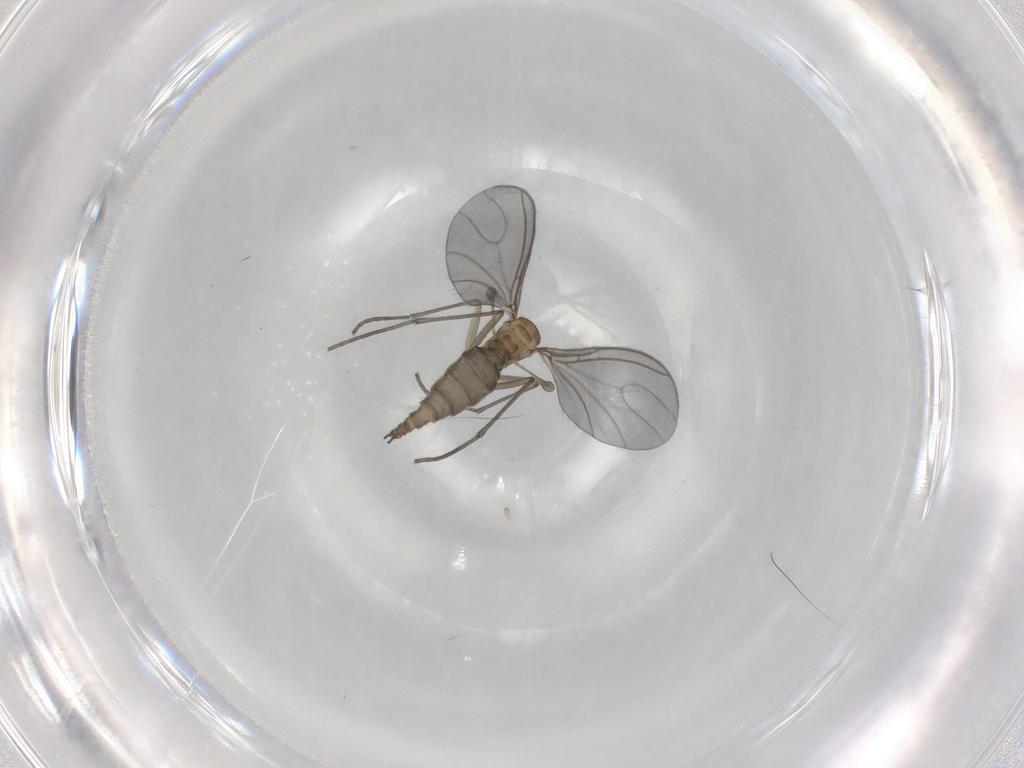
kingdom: Animalia
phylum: Arthropoda
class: Insecta
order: Diptera
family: Sciaridae
